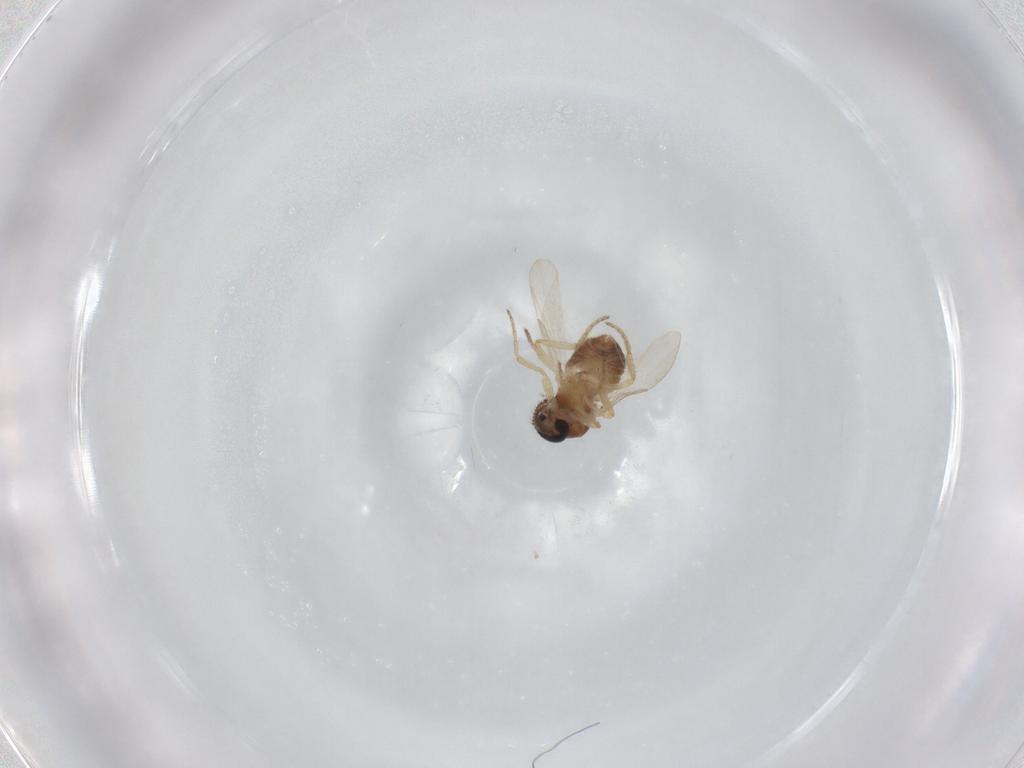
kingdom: Animalia
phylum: Arthropoda
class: Insecta
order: Diptera
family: Ceratopogonidae
